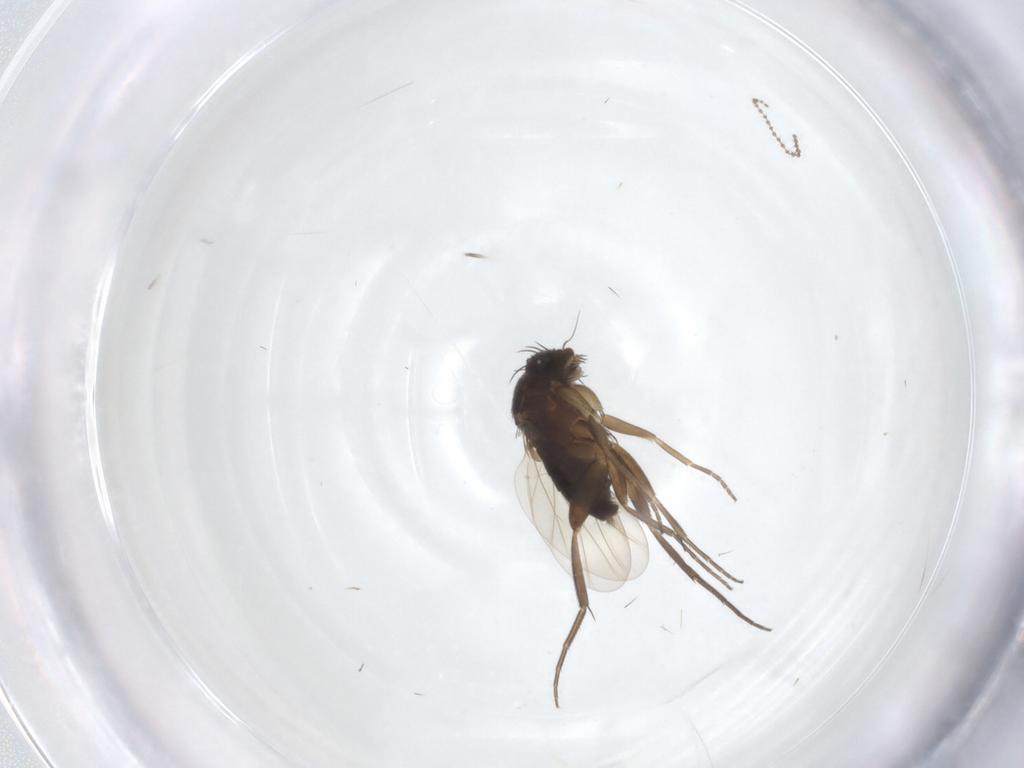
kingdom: Animalia
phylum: Arthropoda
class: Insecta
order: Diptera
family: Phoridae
